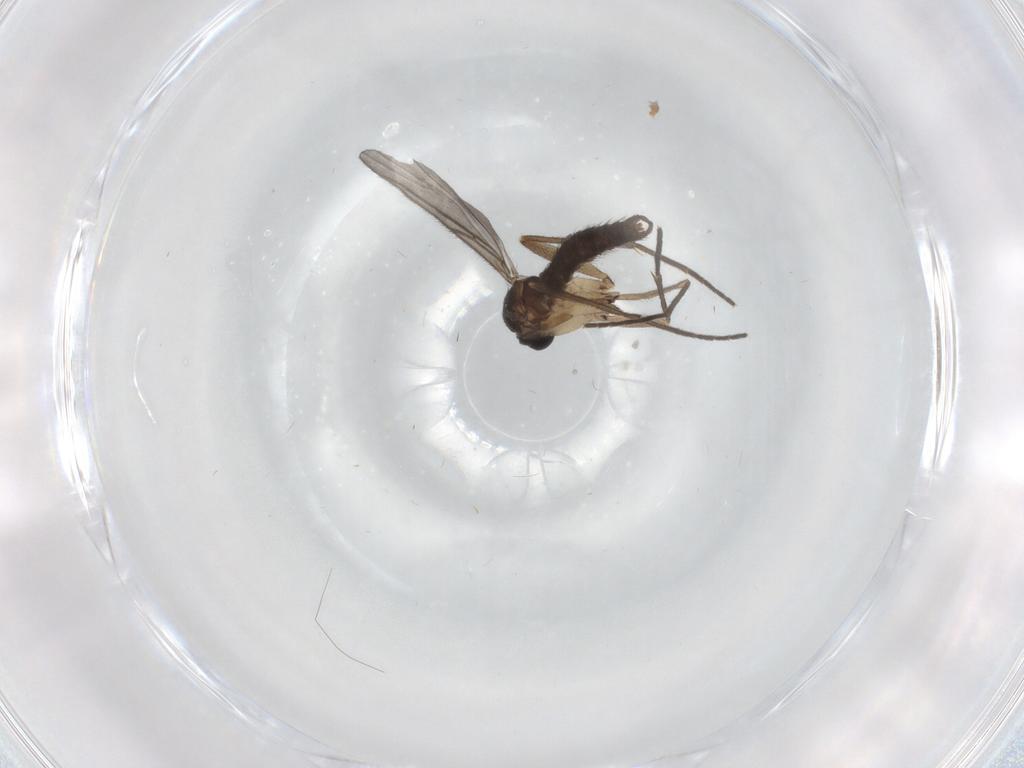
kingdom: Animalia
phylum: Arthropoda
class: Insecta
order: Diptera
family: Sciaridae
